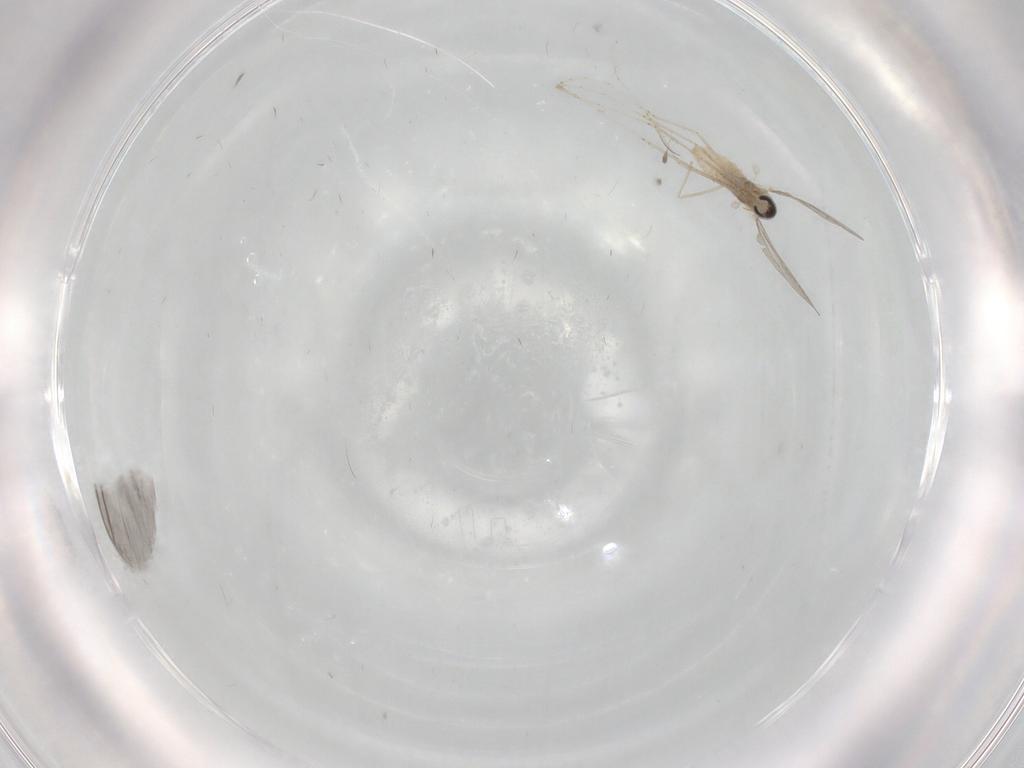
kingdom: Animalia
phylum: Arthropoda
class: Insecta
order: Diptera
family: Sciaridae
